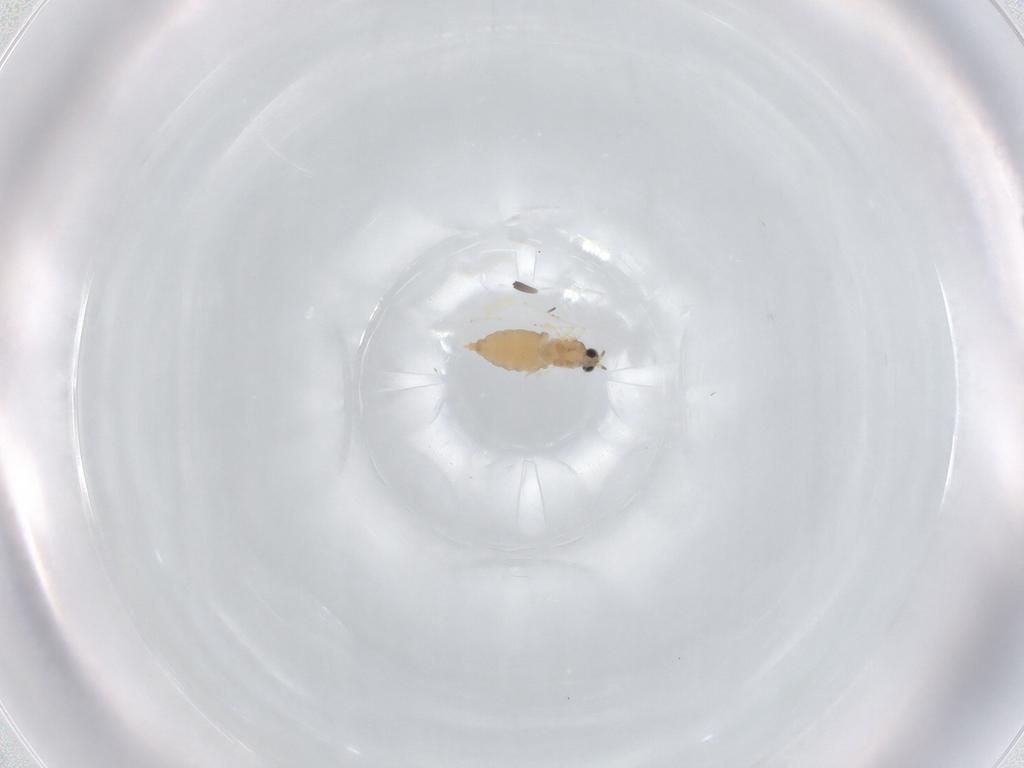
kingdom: Animalia
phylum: Arthropoda
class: Insecta
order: Diptera
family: Cecidomyiidae
